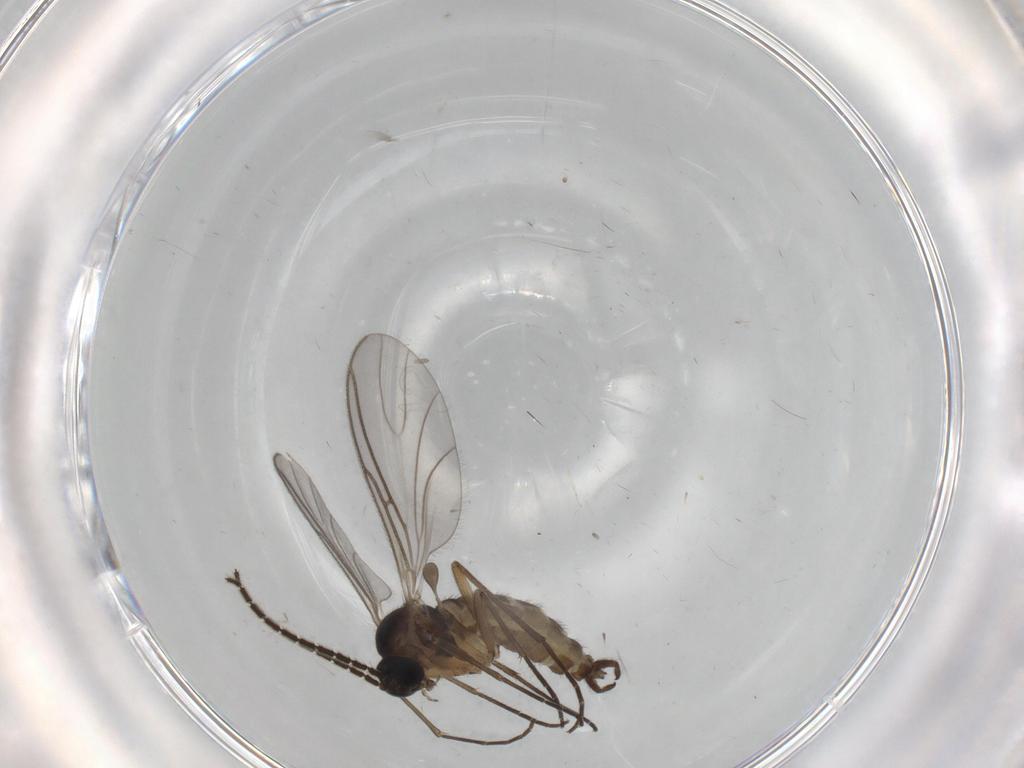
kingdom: Animalia
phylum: Arthropoda
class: Insecta
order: Diptera
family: Sciaridae
